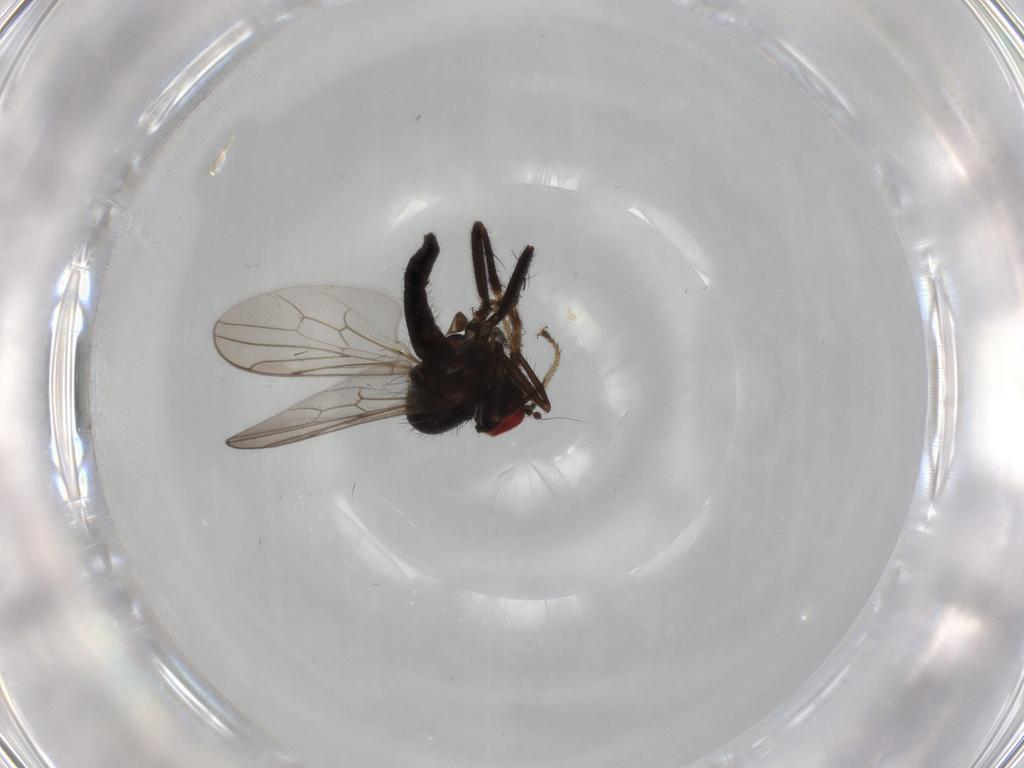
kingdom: Animalia
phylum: Arthropoda
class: Insecta
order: Diptera
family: Hybotidae
